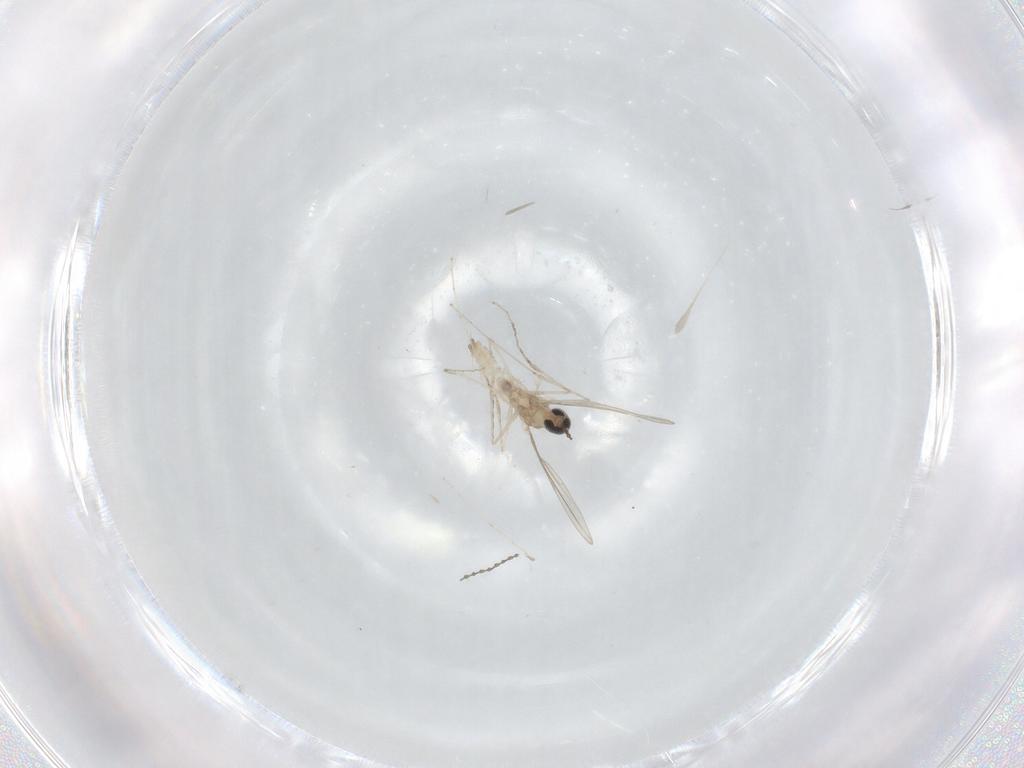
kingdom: Animalia
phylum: Arthropoda
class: Insecta
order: Diptera
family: Cecidomyiidae
